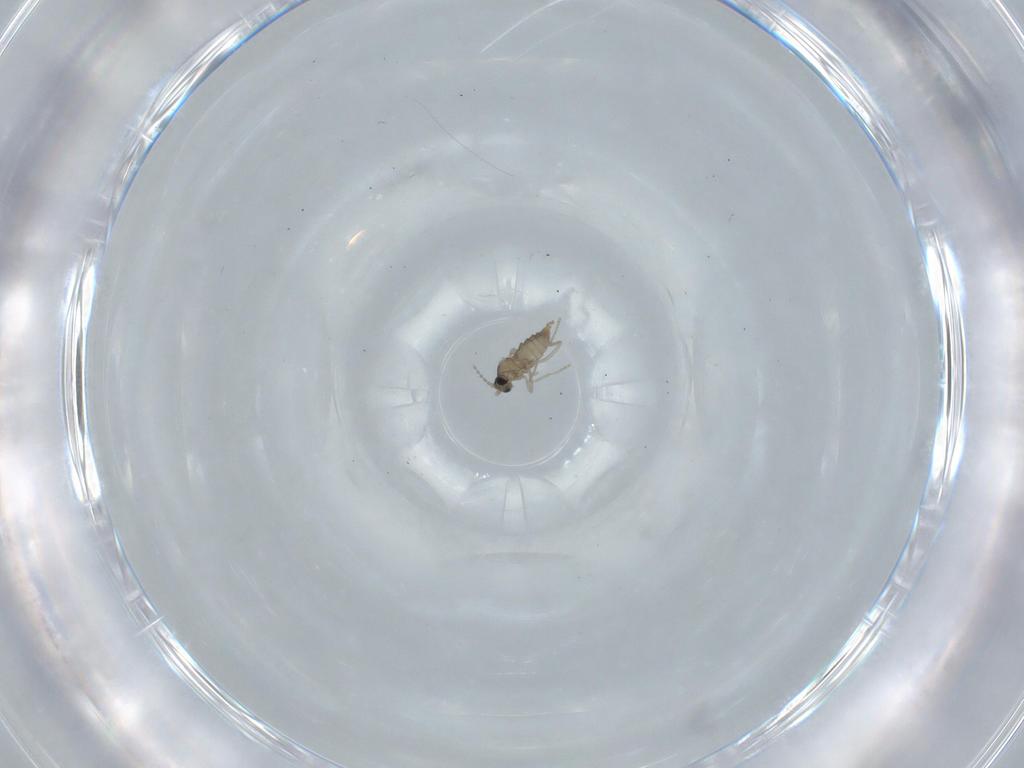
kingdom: Animalia
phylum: Arthropoda
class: Insecta
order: Diptera
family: Cecidomyiidae
